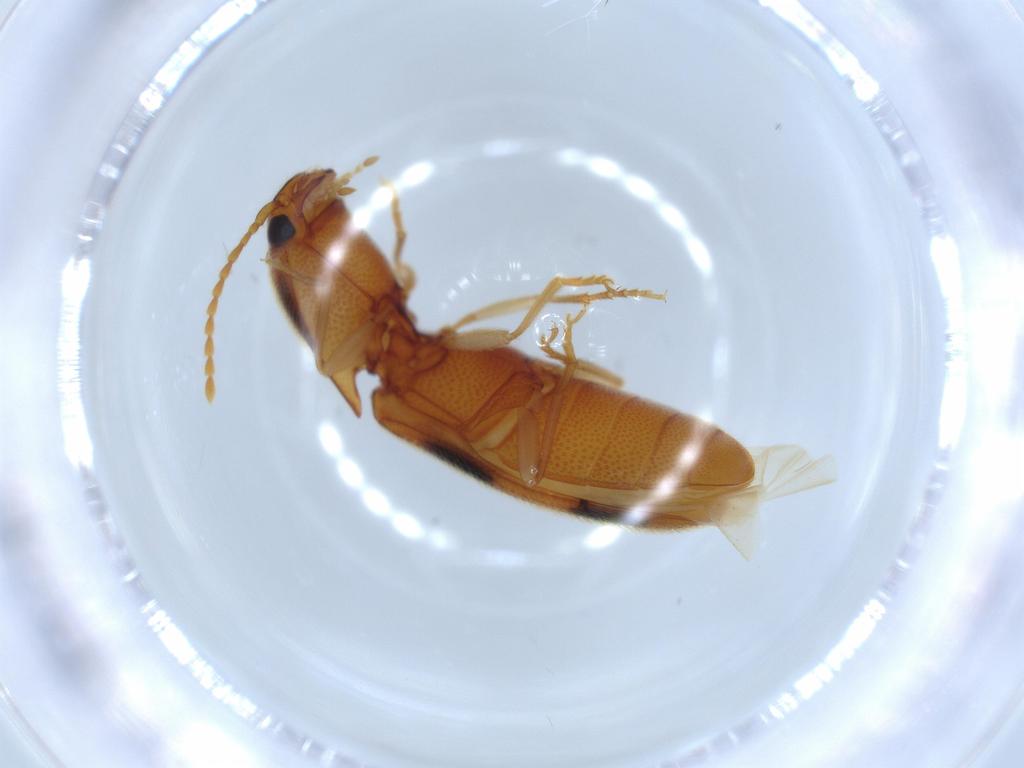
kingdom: Animalia
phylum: Arthropoda
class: Insecta
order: Coleoptera
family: Elateridae
